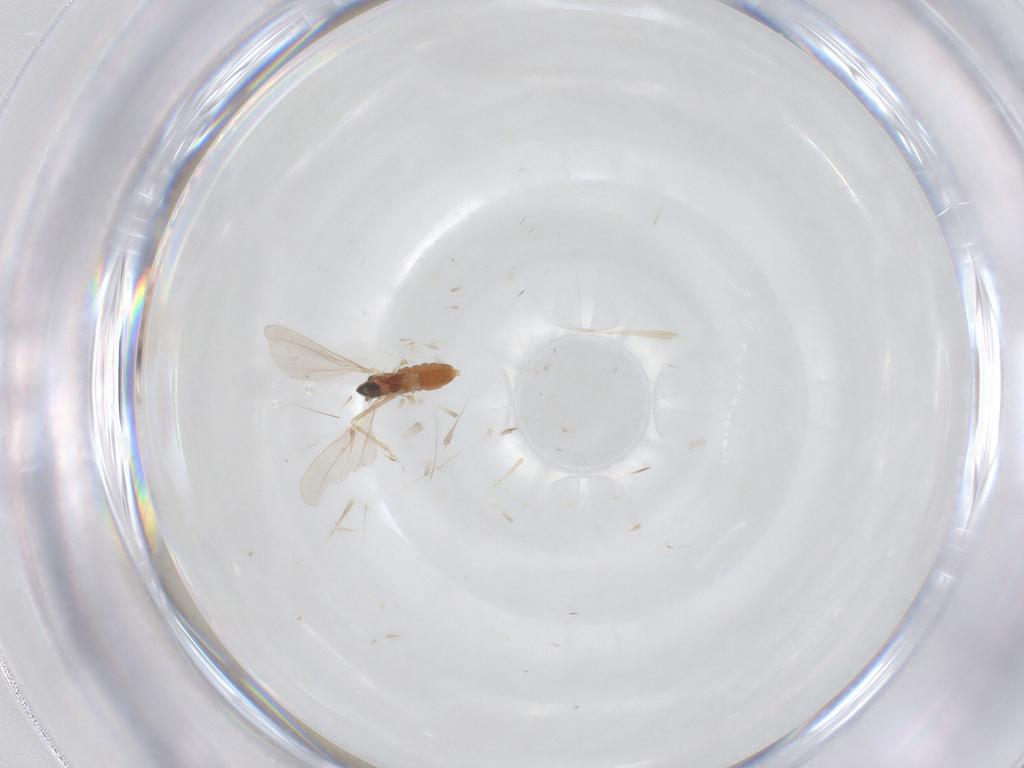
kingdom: Animalia
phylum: Arthropoda
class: Insecta
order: Diptera
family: Cecidomyiidae
